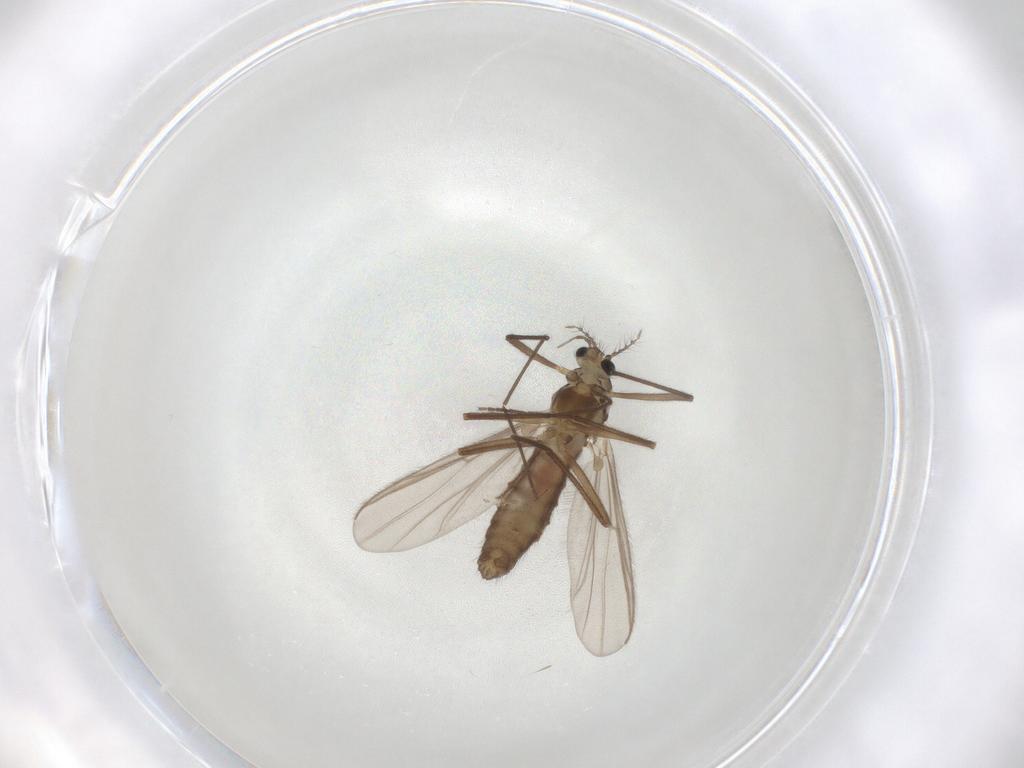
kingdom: Animalia
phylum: Arthropoda
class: Insecta
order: Diptera
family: Chironomidae
